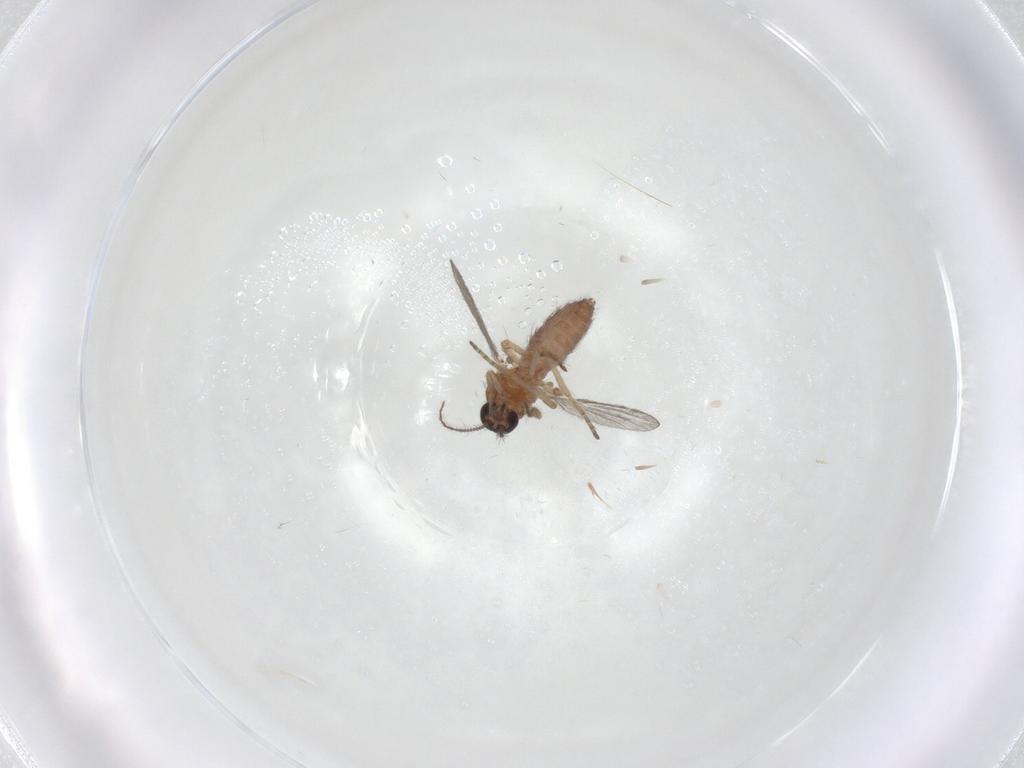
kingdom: Animalia
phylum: Arthropoda
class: Insecta
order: Diptera
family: Ceratopogonidae
